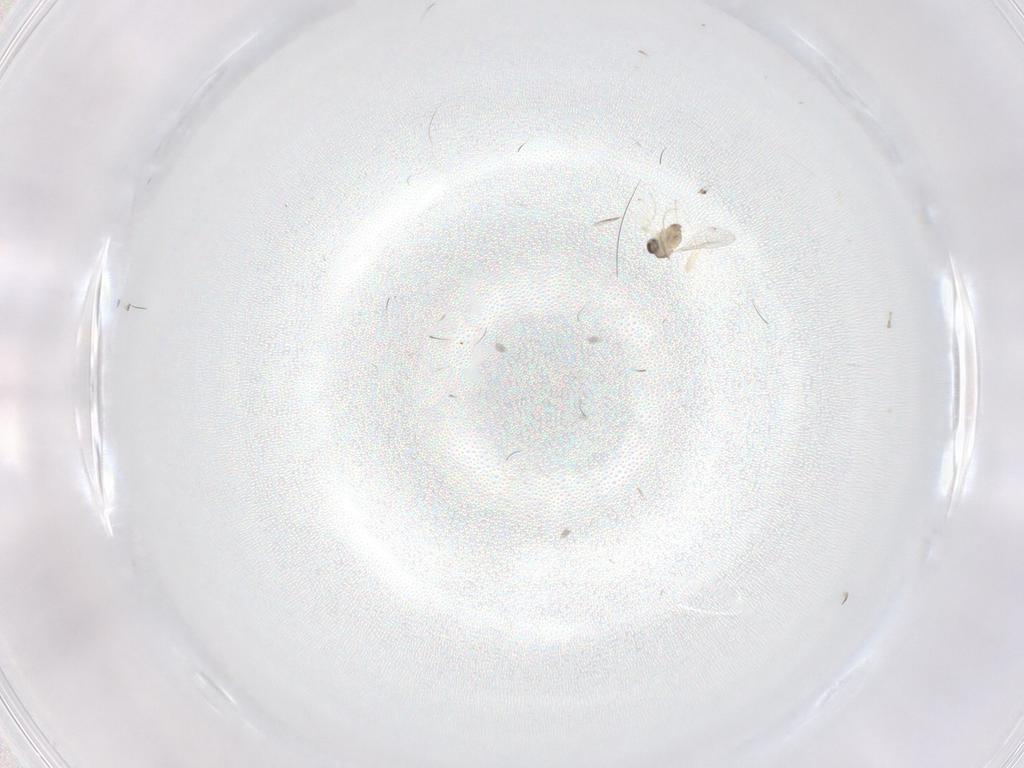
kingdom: Animalia
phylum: Arthropoda
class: Insecta
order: Diptera
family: Cecidomyiidae
